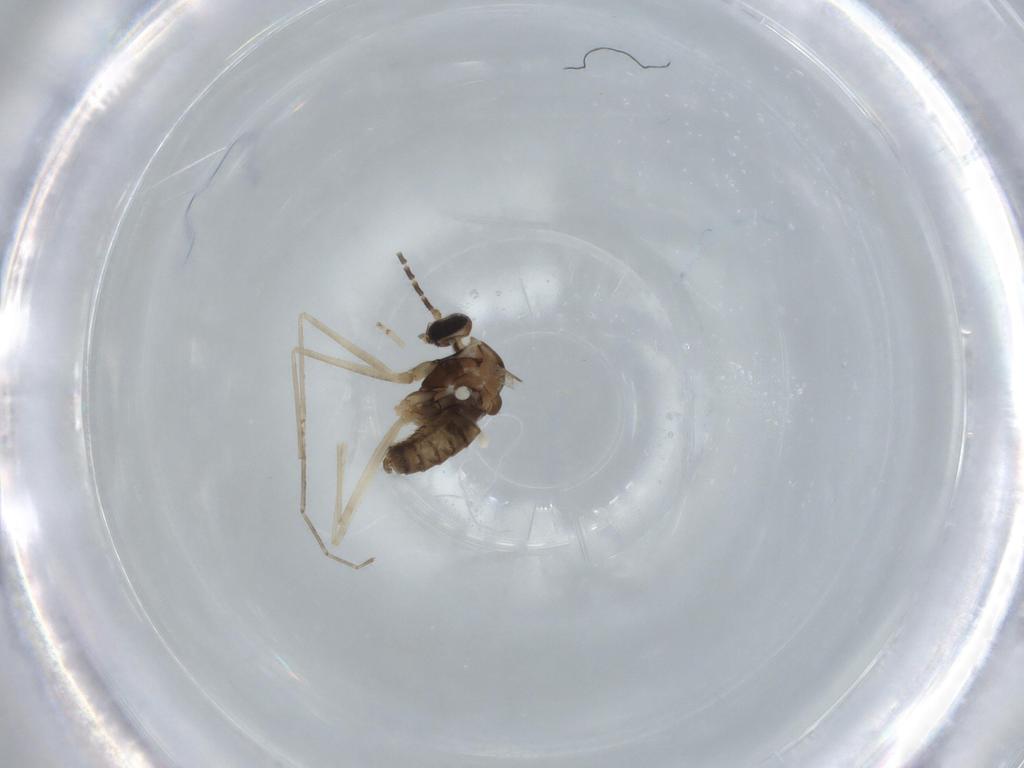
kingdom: Animalia
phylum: Arthropoda
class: Insecta
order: Diptera
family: Cecidomyiidae
